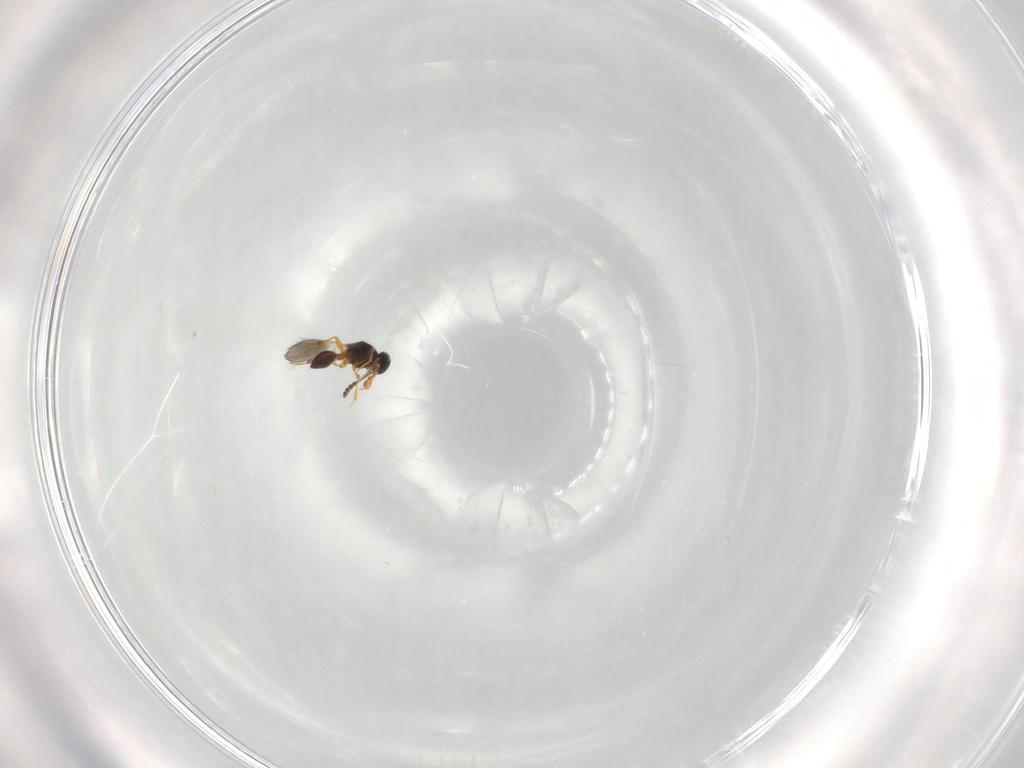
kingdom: Animalia
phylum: Arthropoda
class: Insecta
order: Hymenoptera
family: Platygastridae
